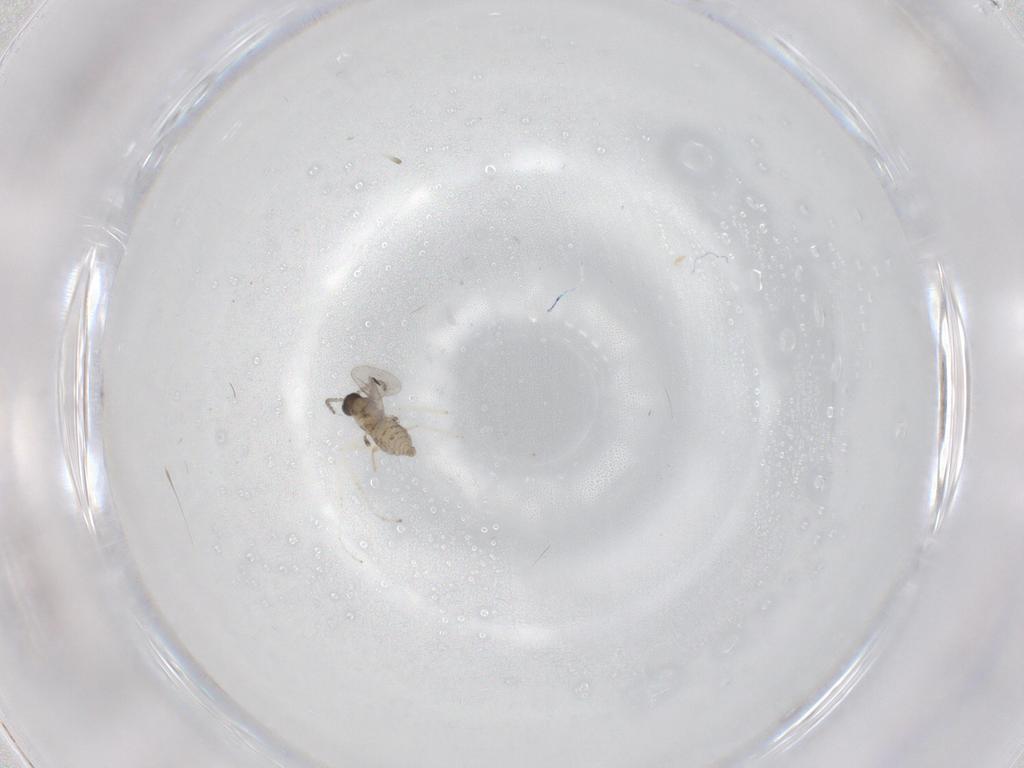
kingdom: Animalia
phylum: Arthropoda
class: Insecta
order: Diptera
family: Cecidomyiidae
